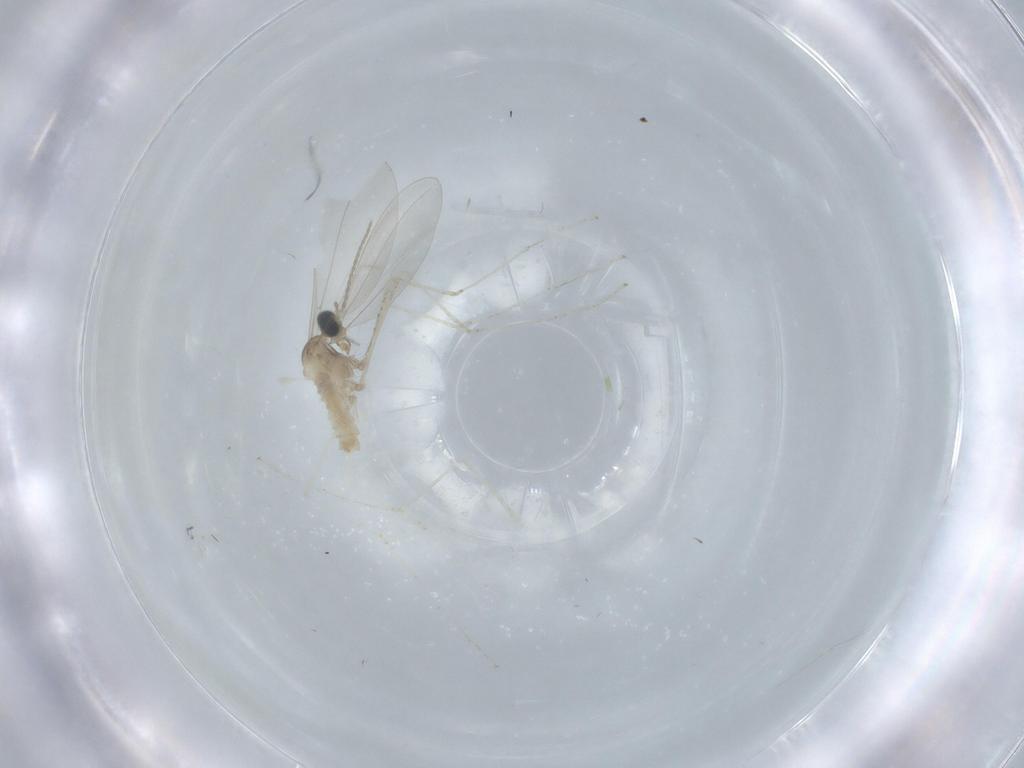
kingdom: Animalia
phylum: Arthropoda
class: Insecta
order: Diptera
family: Cecidomyiidae
